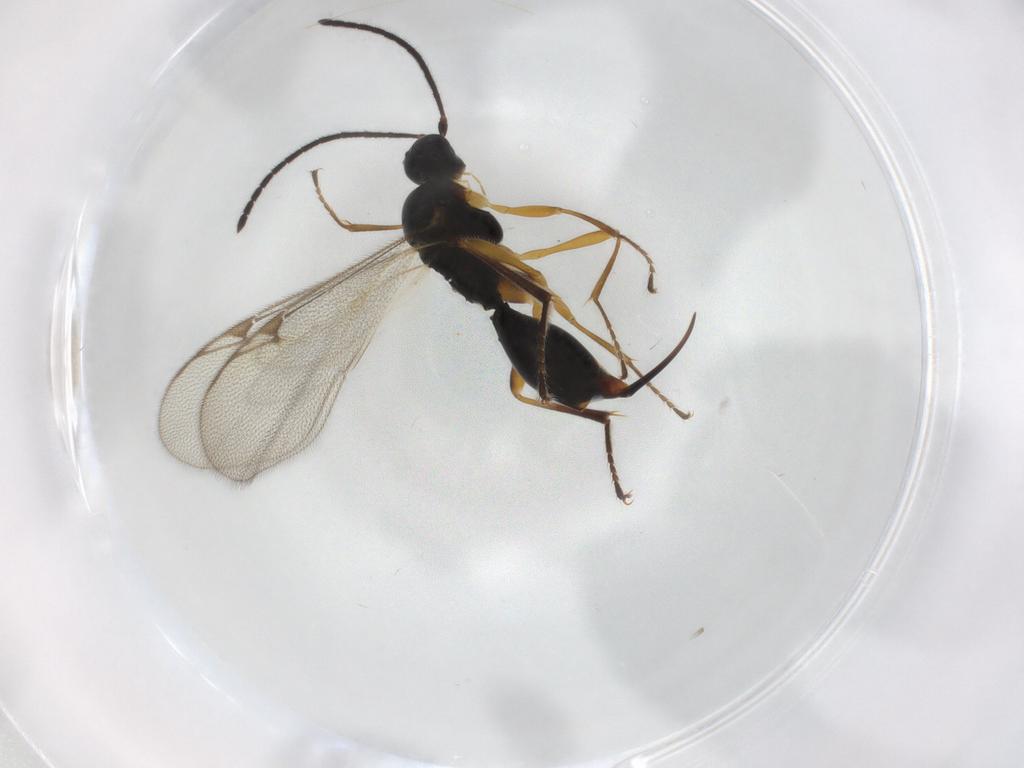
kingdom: Animalia
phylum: Arthropoda
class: Insecta
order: Hymenoptera
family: Proctotrupidae
